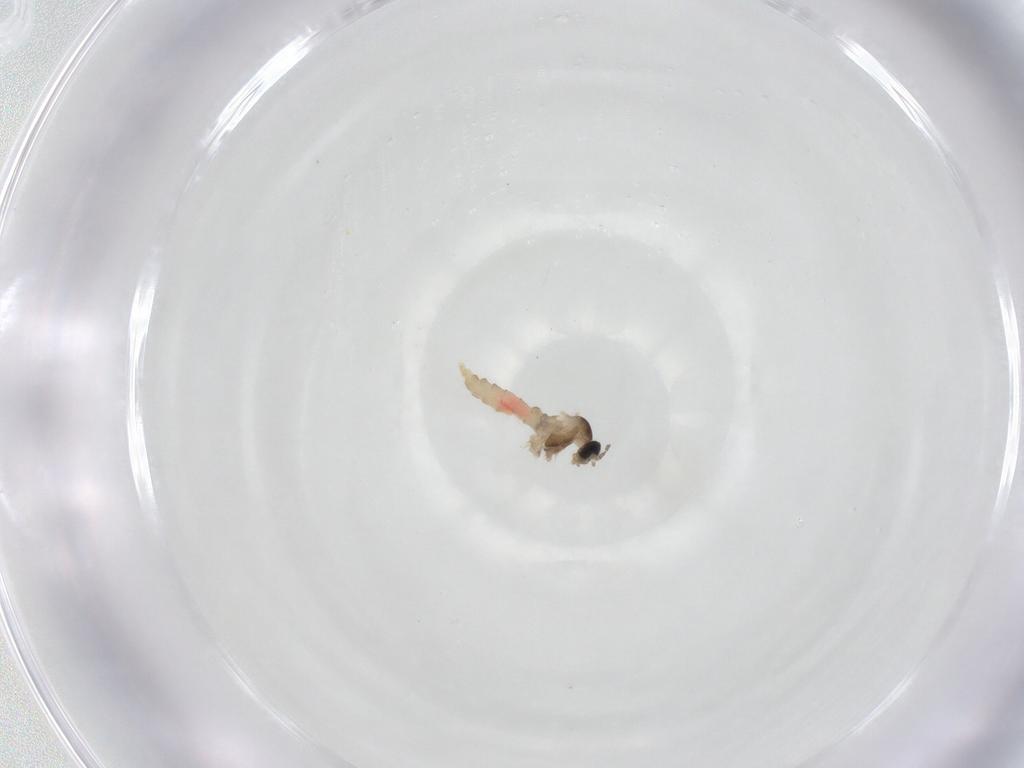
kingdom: Animalia
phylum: Arthropoda
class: Insecta
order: Diptera
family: Cecidomyiidae
